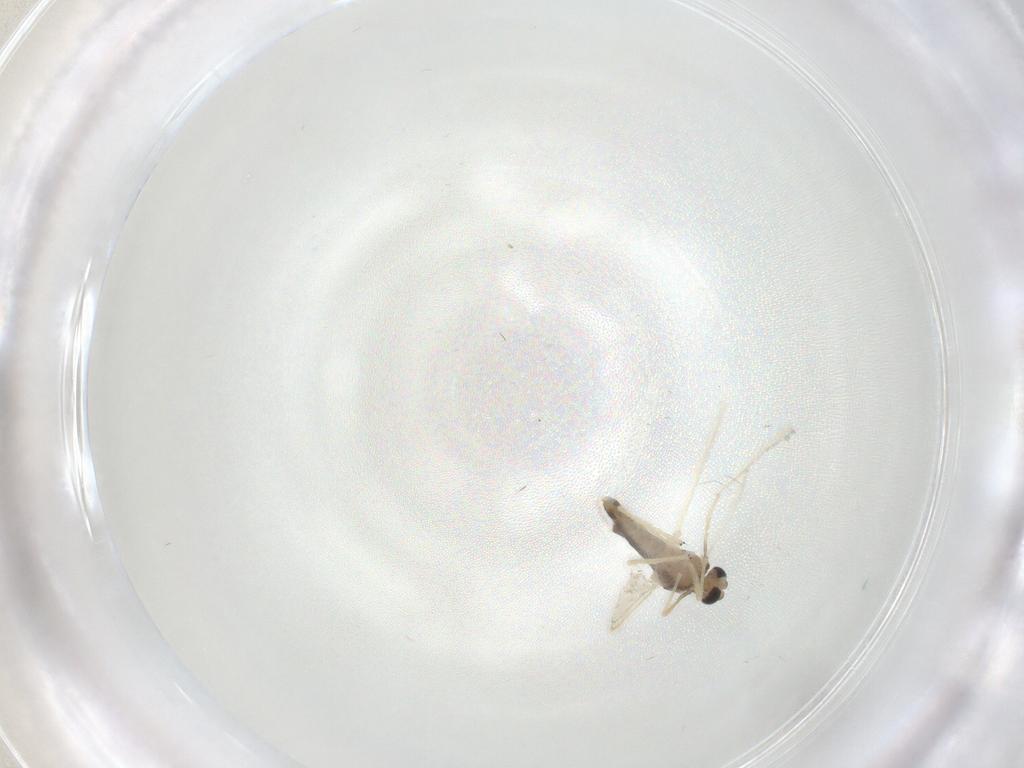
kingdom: Animalia
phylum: Arthropoda
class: Insecta
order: Diptera
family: Chironomidae
